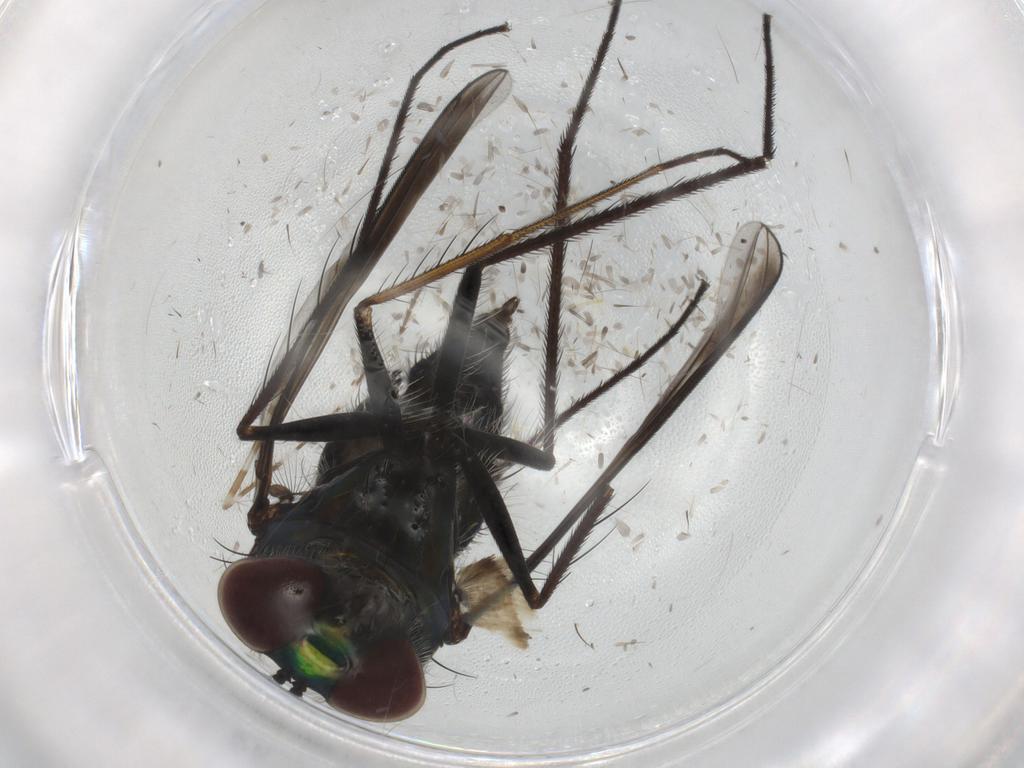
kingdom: Animalia
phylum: Arthropoda
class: Insecta
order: Diptera
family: Dolichopodidae
